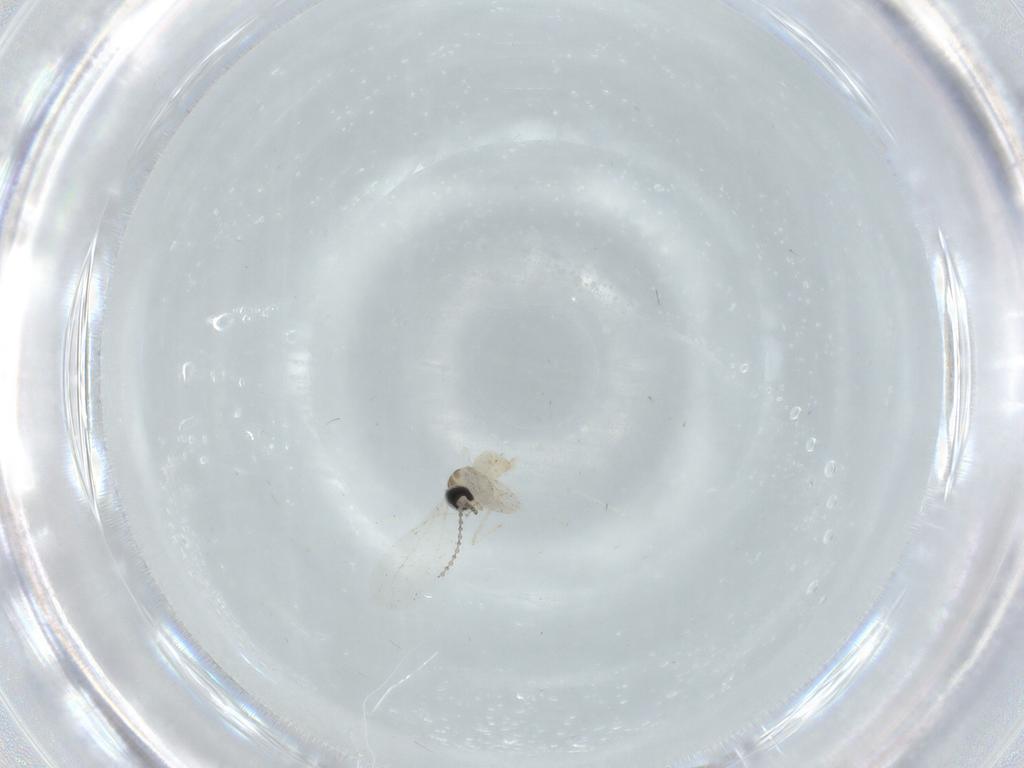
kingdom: Animalia
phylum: Arthropoda
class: Insecta
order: Diptera
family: Cecidomyiidae
